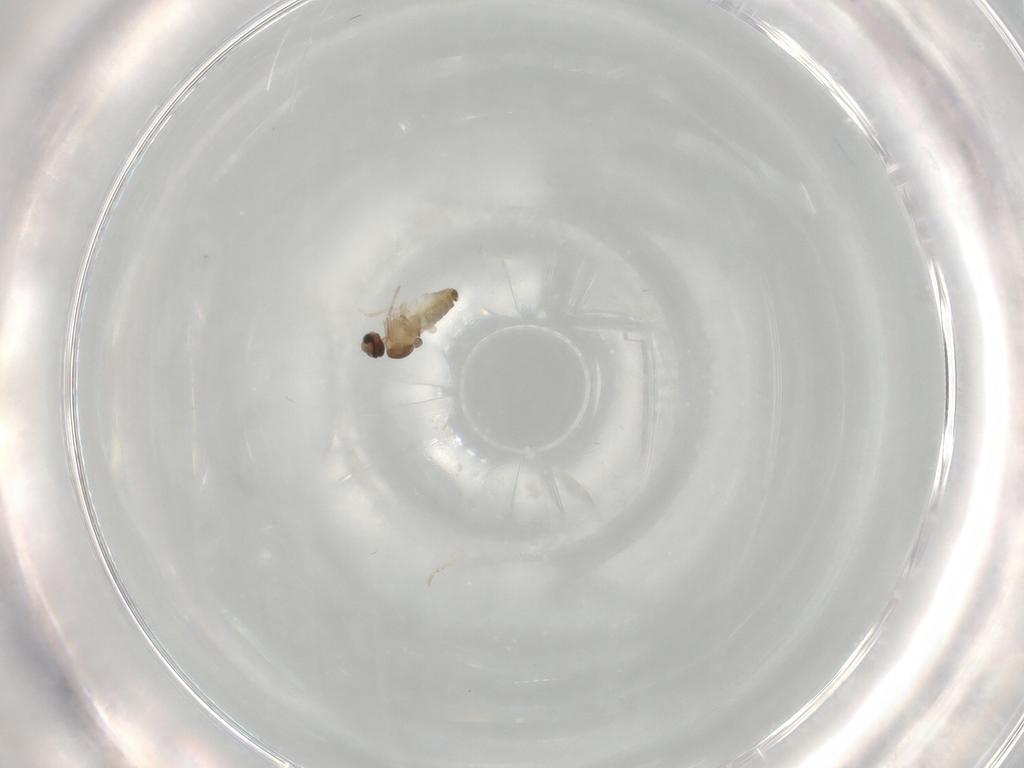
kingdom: Animalia
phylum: Arthropoda
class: Insecta
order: Diptera
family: Cecidomyiidae
